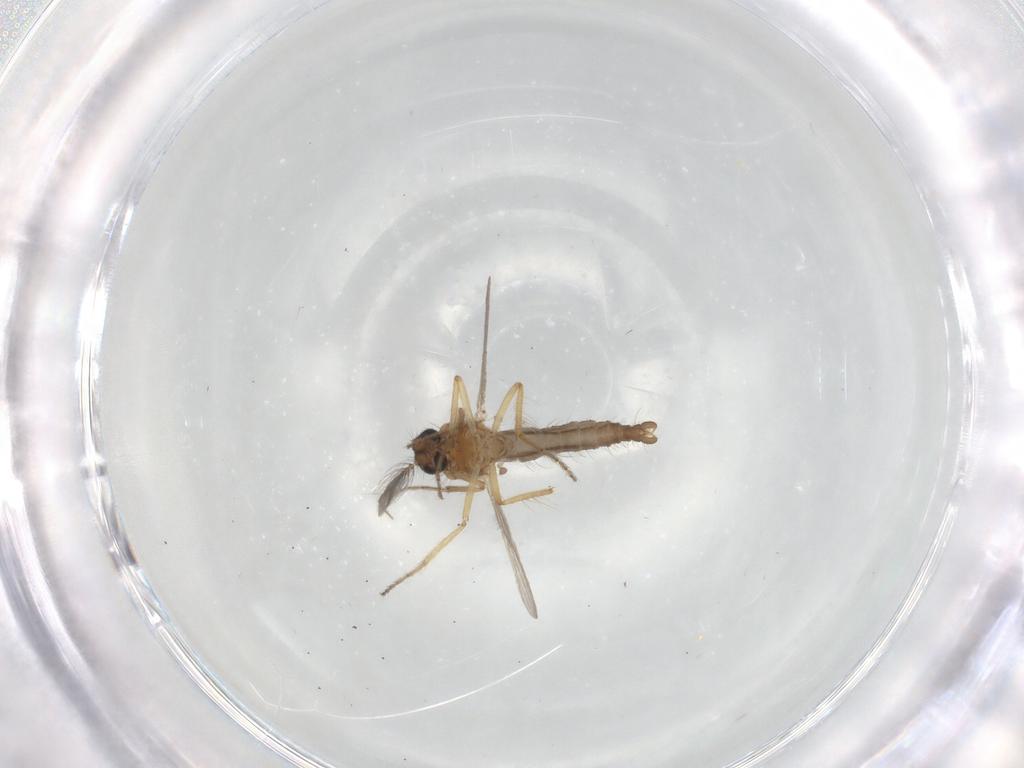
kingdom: Animalia
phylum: Arthropoda
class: Insecta
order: Diptera
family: Ceratopogonidae
